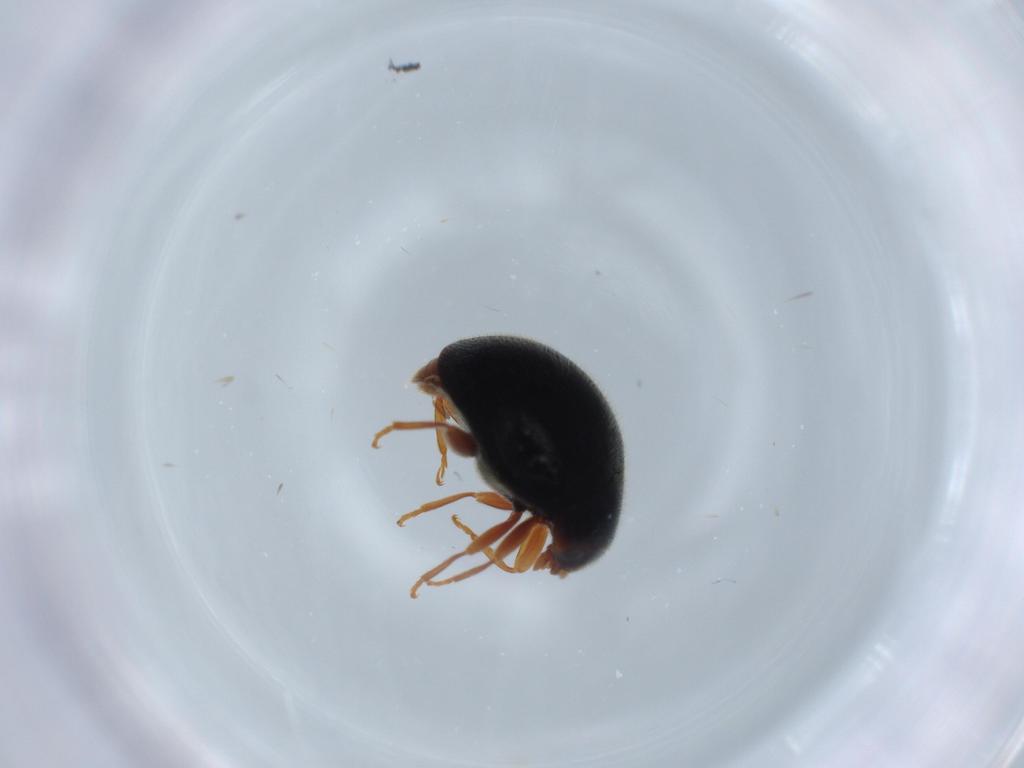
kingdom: Animalia
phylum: Arthropoda
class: Insecta
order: Coleoptera
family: Coccinellidae
